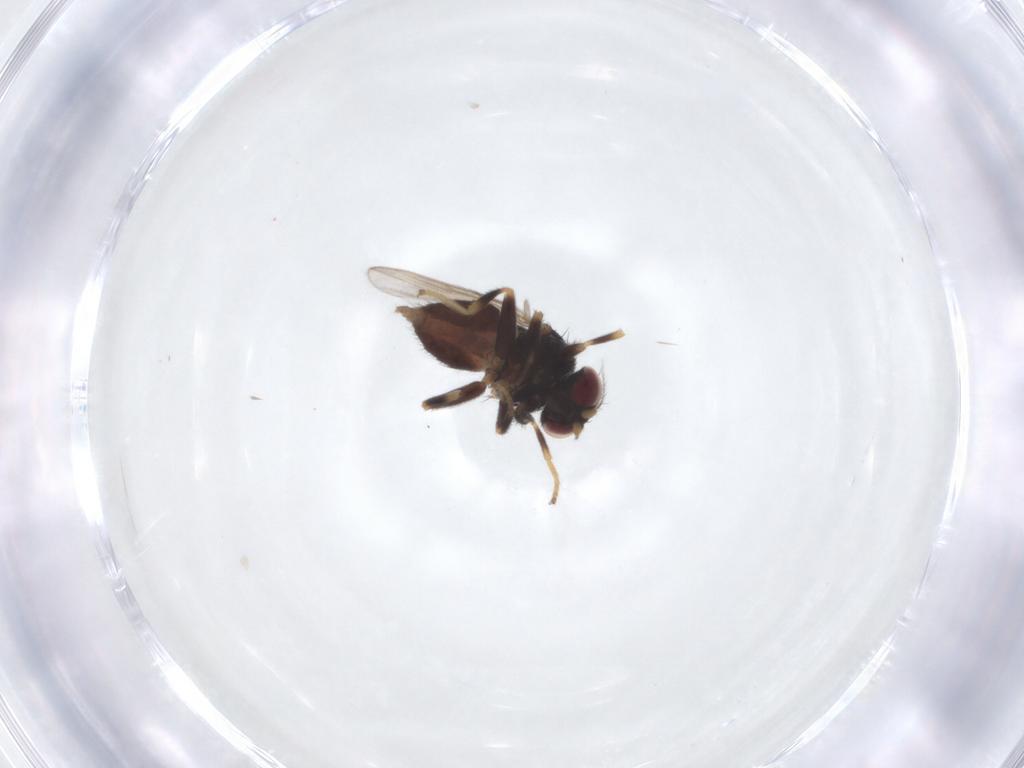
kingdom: Animalia
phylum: Arthropoda
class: Insecta
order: Diptera
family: Chloropidae
